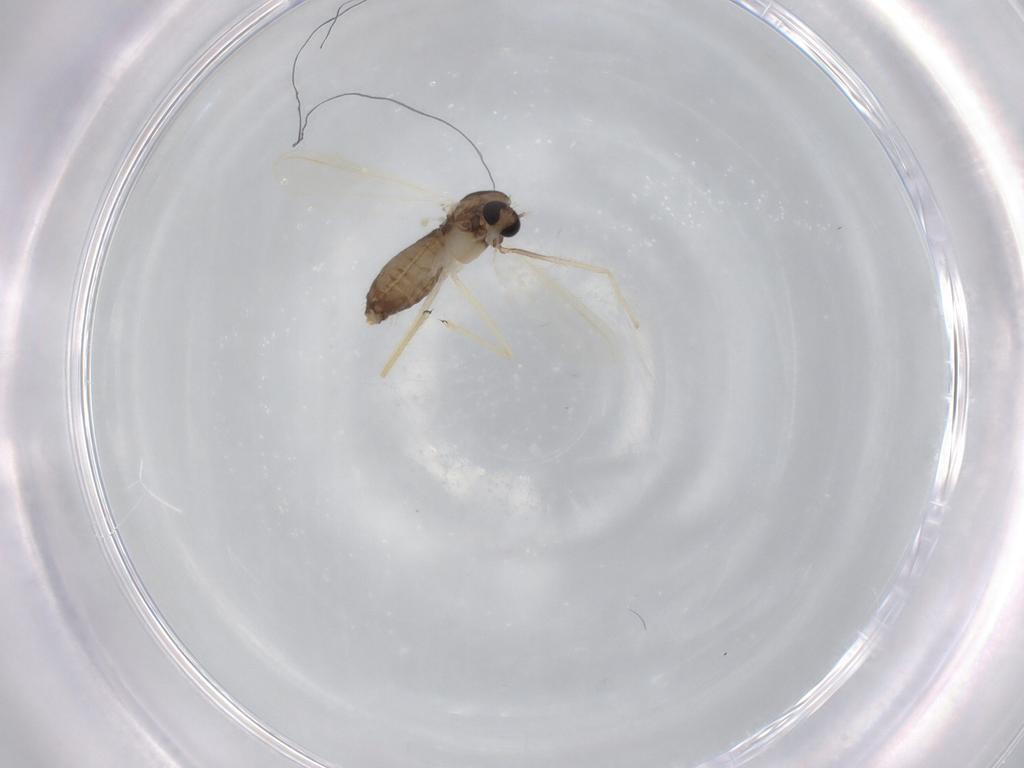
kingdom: Animalia
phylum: Arthropoda
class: Insecta
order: Diptera
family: Chironomidae
